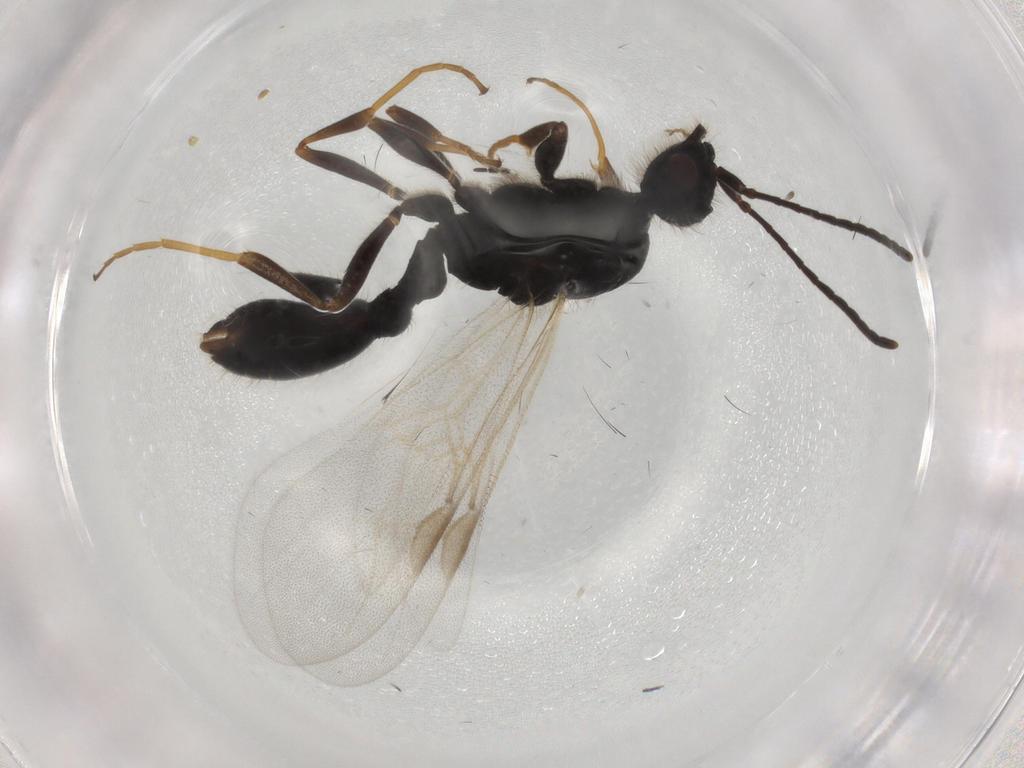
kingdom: Animalia
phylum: Arthropoda
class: Insecta
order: Hymenoptera
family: Formicidae
